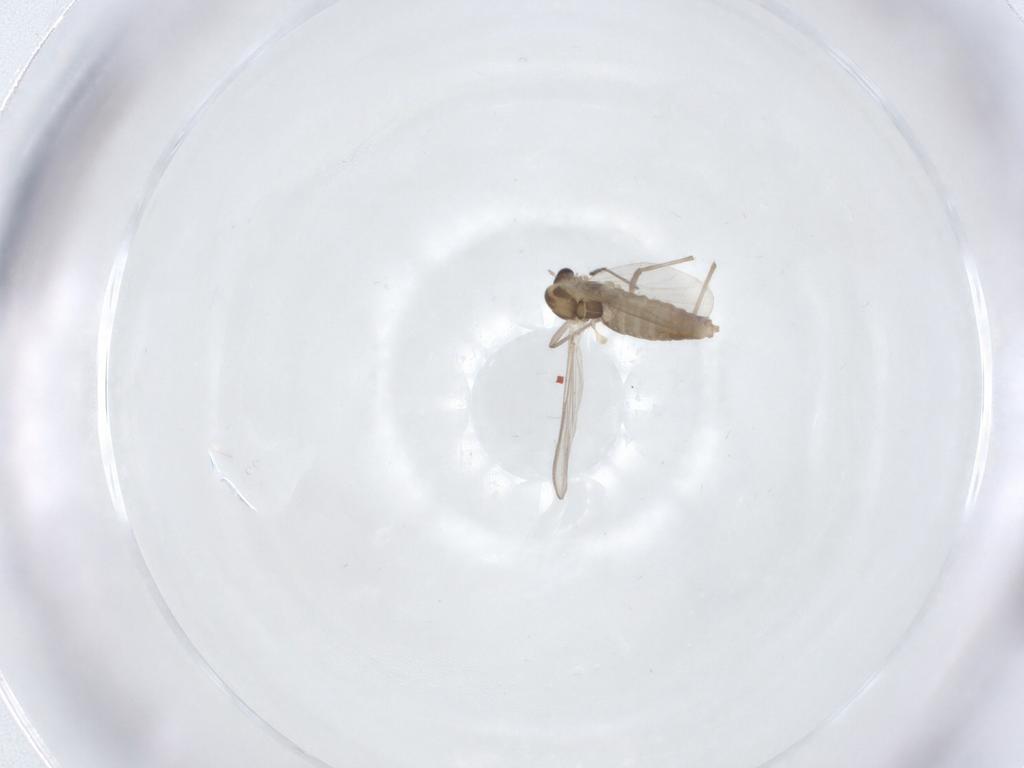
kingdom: Animalia
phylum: Arthropoda
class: Insecta
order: Diptera
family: Chironomidae
